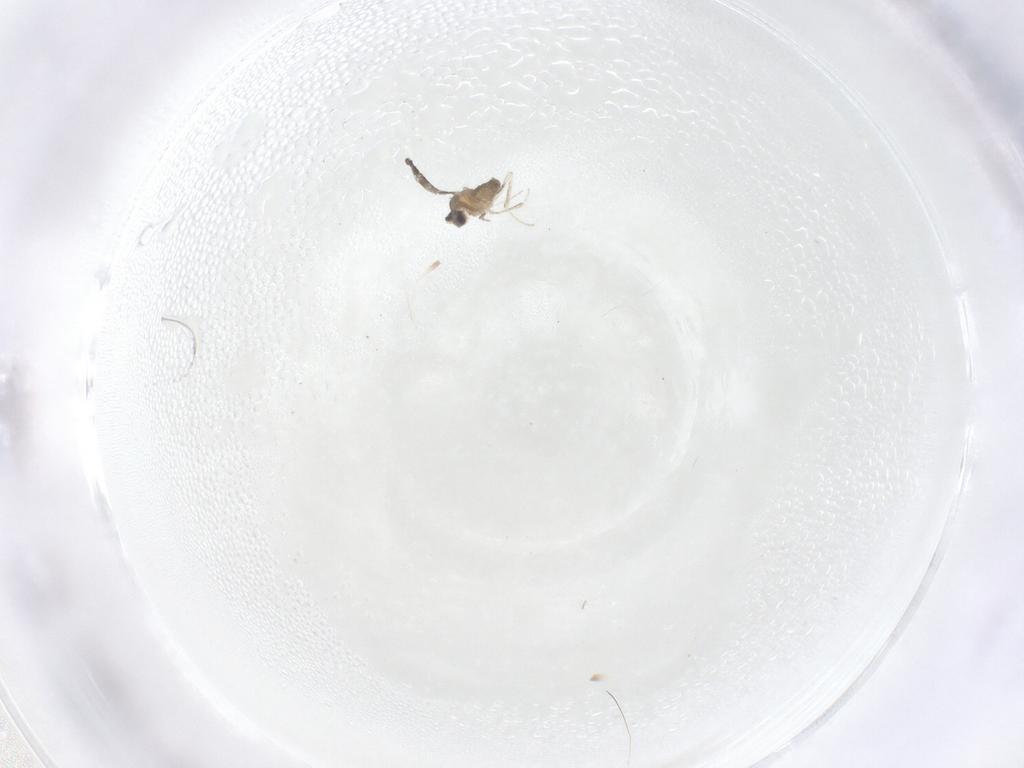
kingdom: Animalia
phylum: Arthropoda
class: Insecta
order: Diptera
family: Cecidomyiidae
